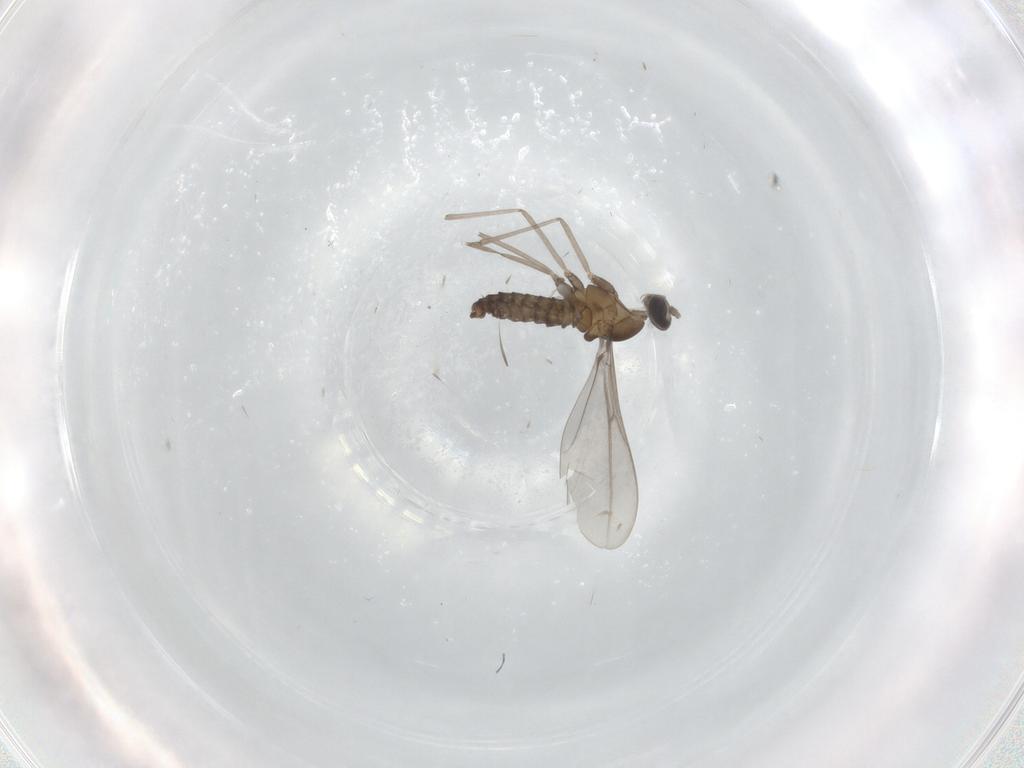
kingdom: Animalia
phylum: Arthropoda
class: Insecta
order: Diptera
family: Cecidomyiidae
